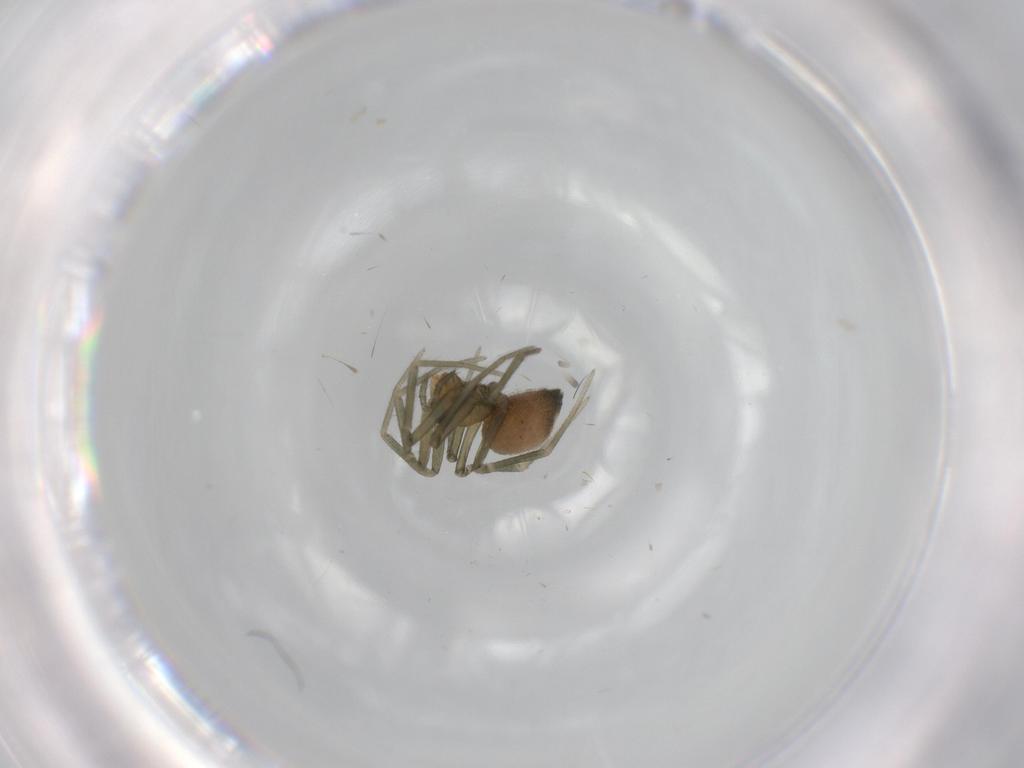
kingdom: Animalia
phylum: Arthropoda
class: Arachnida
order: Araneae
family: Linyphiidae
